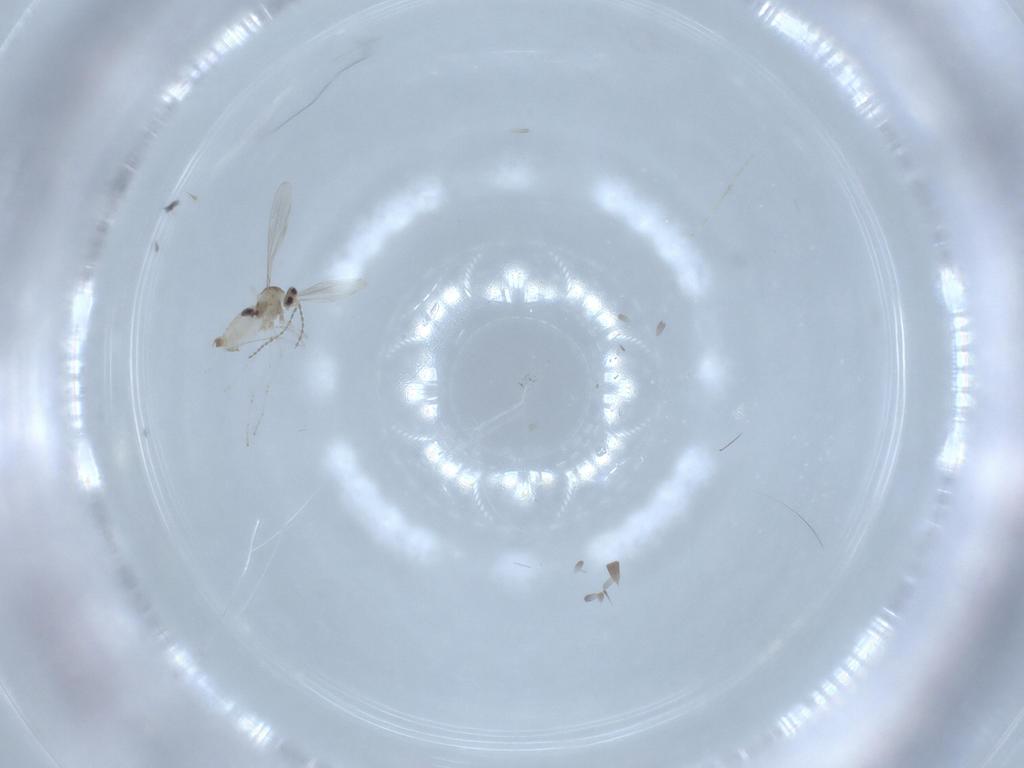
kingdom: Animalia
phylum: Arthropoda
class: Insecta
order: Diptera
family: Cecidomyiidae
